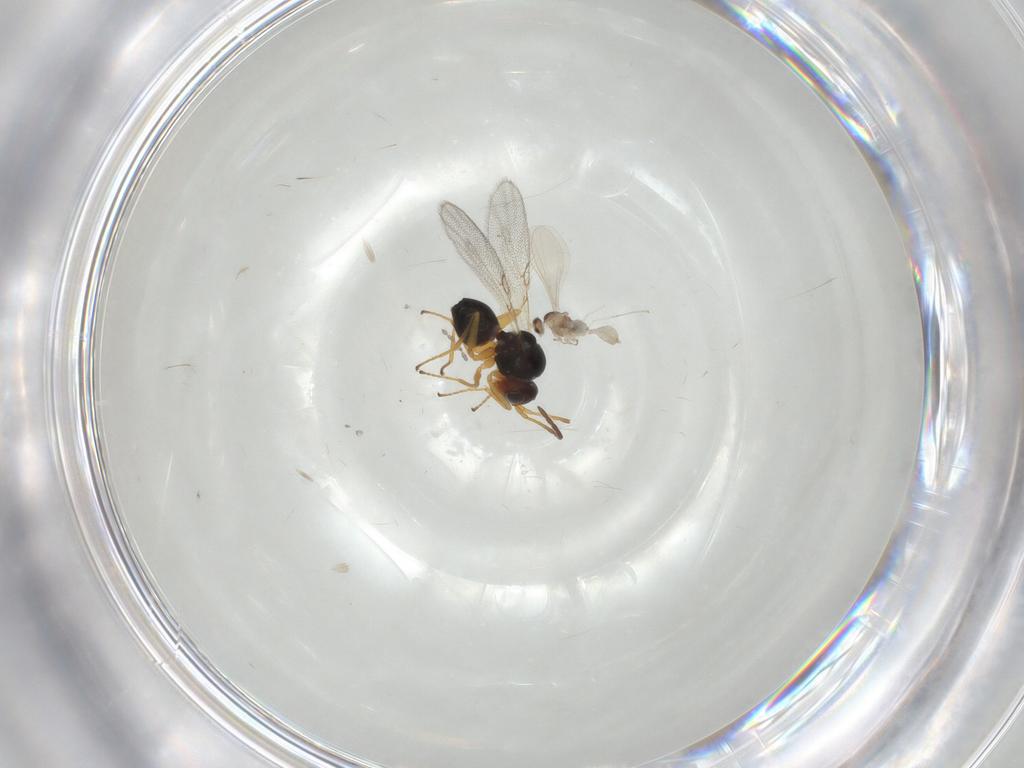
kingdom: Animalia
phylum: Arthropoda
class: Insecta
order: Hymenoptera
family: Figitidae
